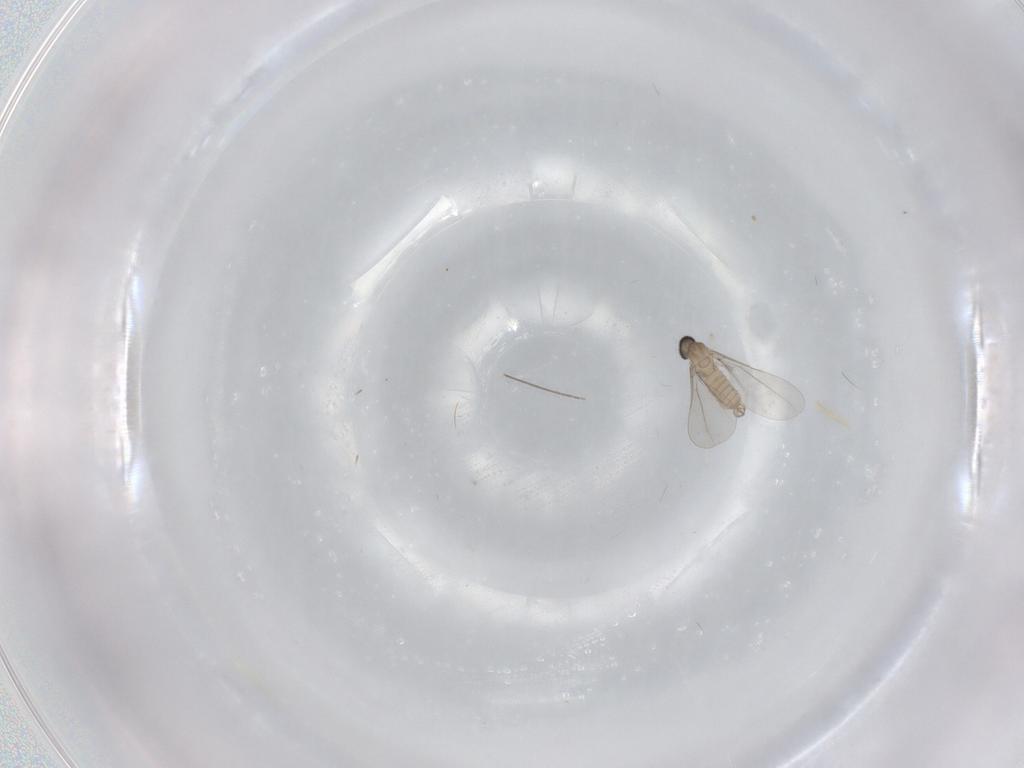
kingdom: Animalia
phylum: Arthropoda
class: Insecta
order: Diptera
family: Cecidomyiidae
